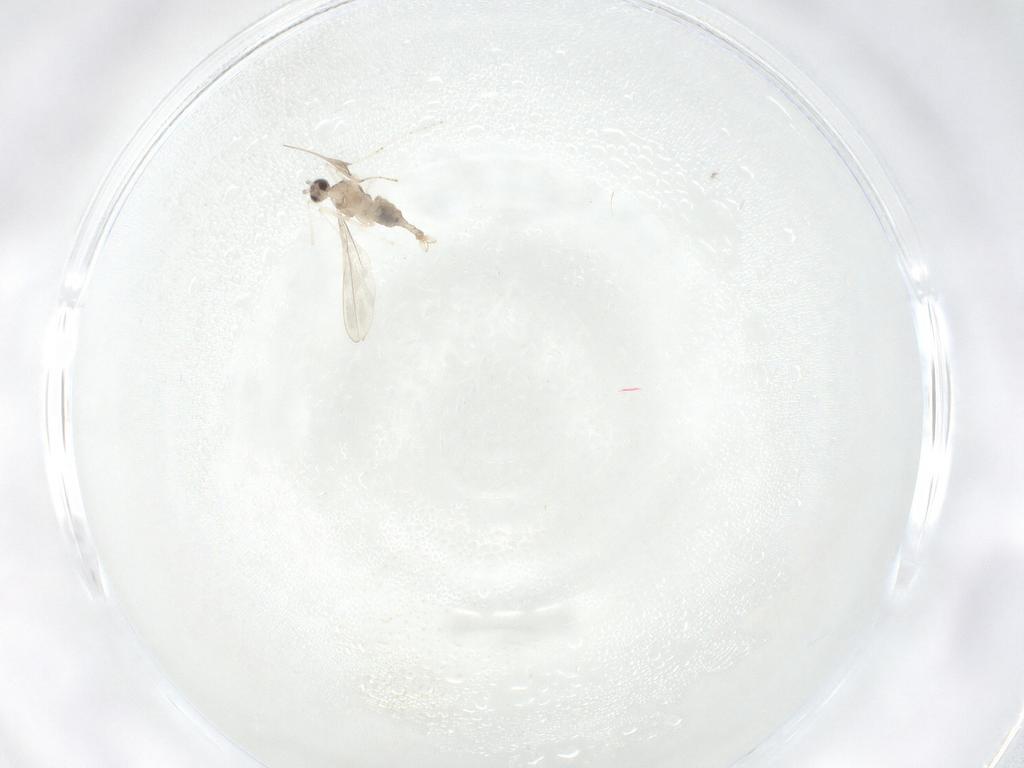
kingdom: Animalia
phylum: Arthropoda
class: Insecta
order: Diptera
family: Cecidomyiidae
